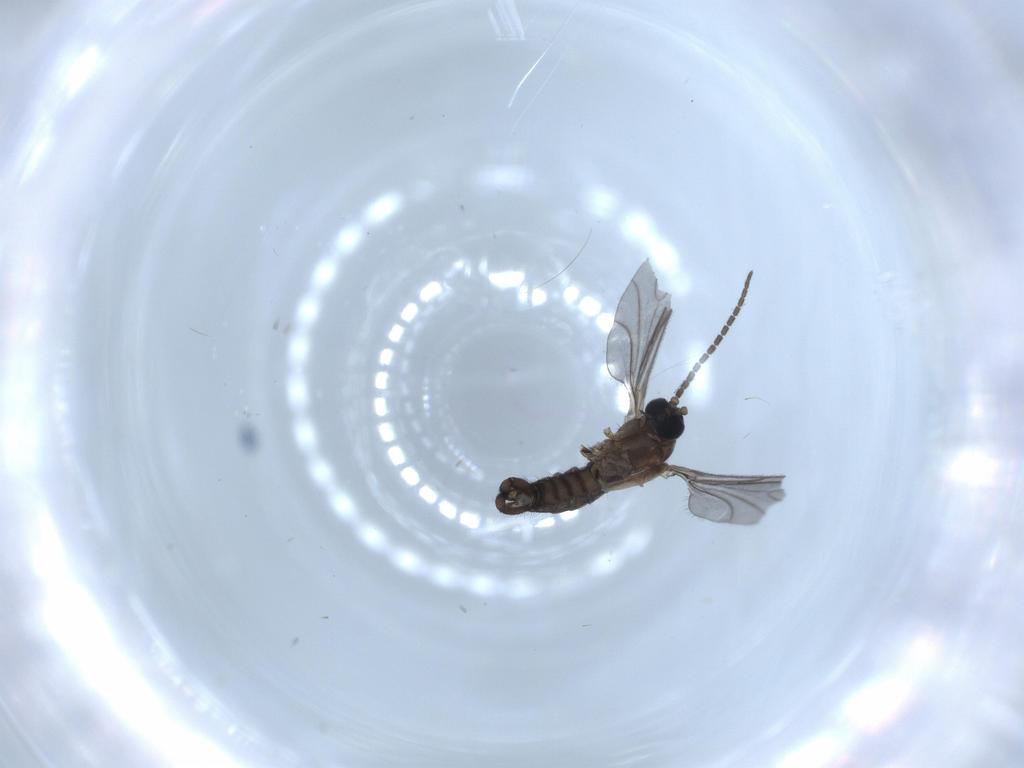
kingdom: Animalia
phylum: Arthropoda
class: Insecta
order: Diptera
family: Sciaridae
